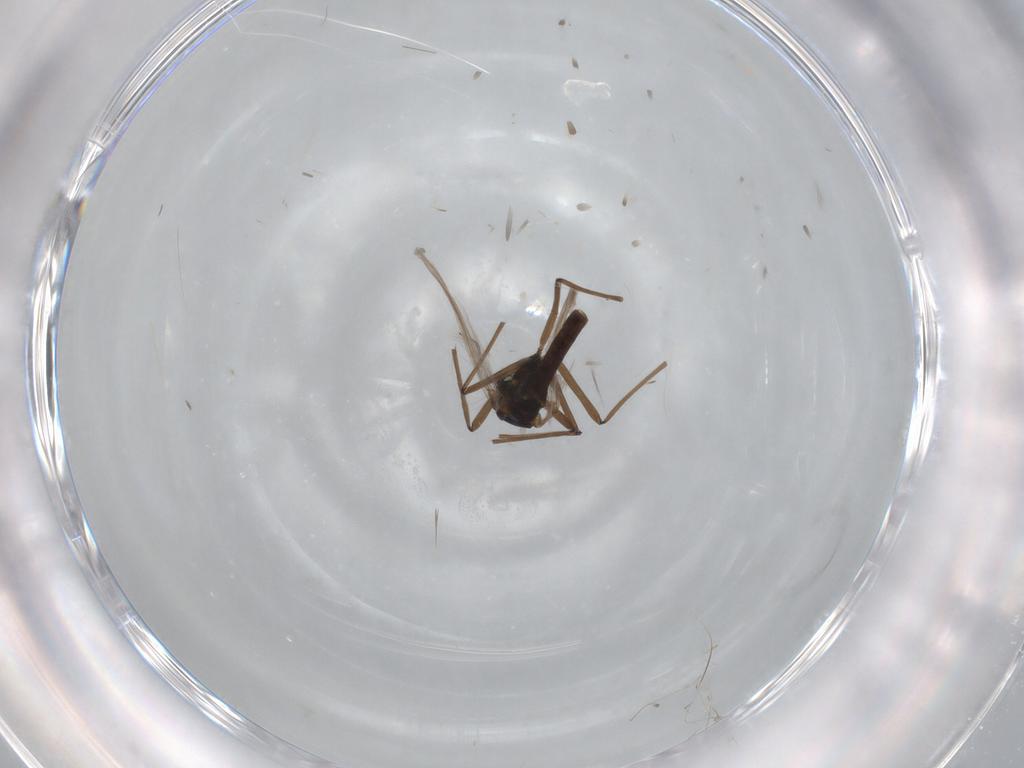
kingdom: Animalia
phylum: Arthropoda
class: Insecta
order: Diptera
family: Chironomidae
